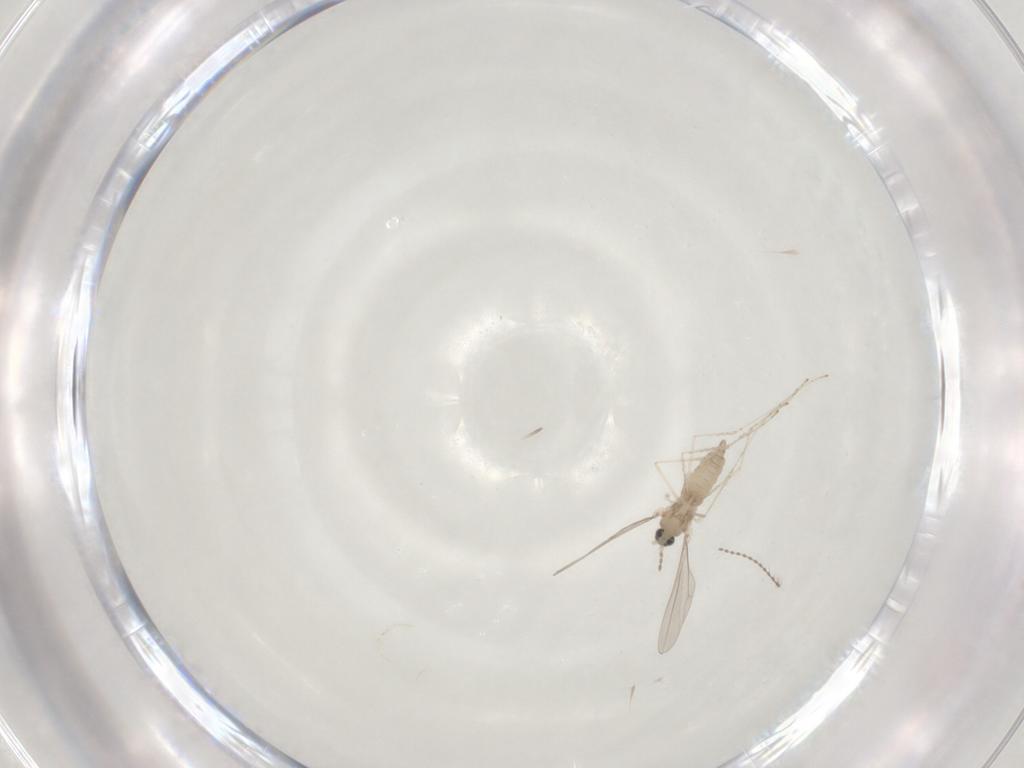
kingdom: Animalia
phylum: Arthropoda
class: Insecta
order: Diptera
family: Cecidomyiidae
